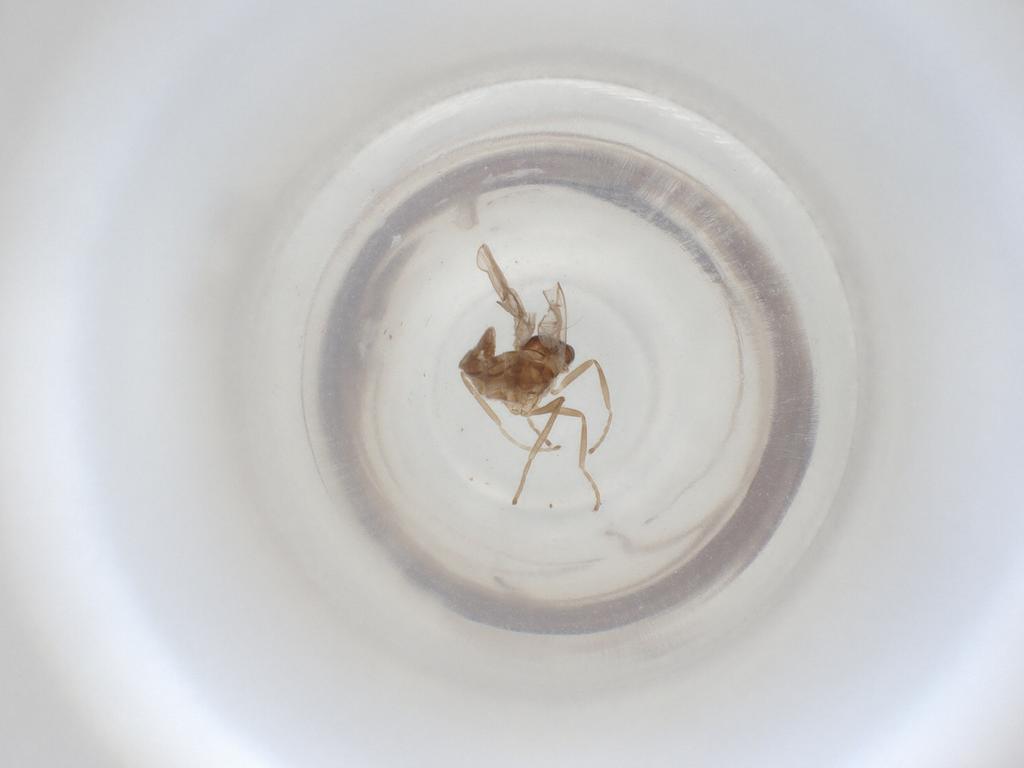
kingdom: Animalia
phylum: Arthropoda
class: Insecta
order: Diptera
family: Cecidomyiidae
